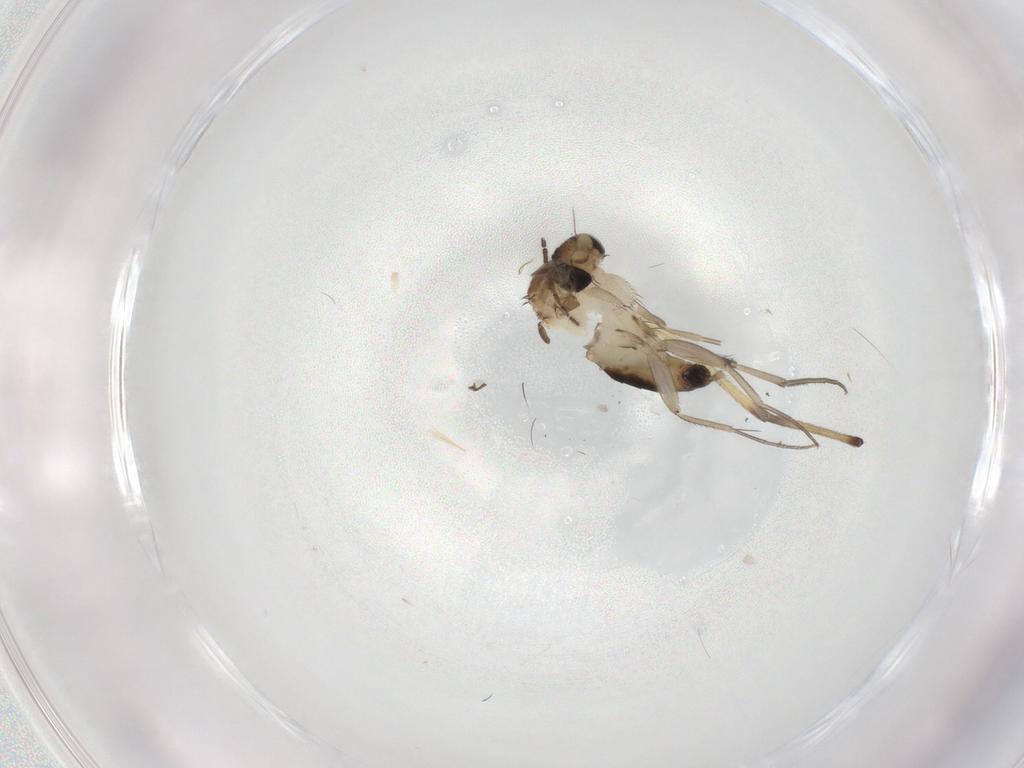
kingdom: Animalia
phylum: Arthropoda
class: Insecta
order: Diptera
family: Phoridae
